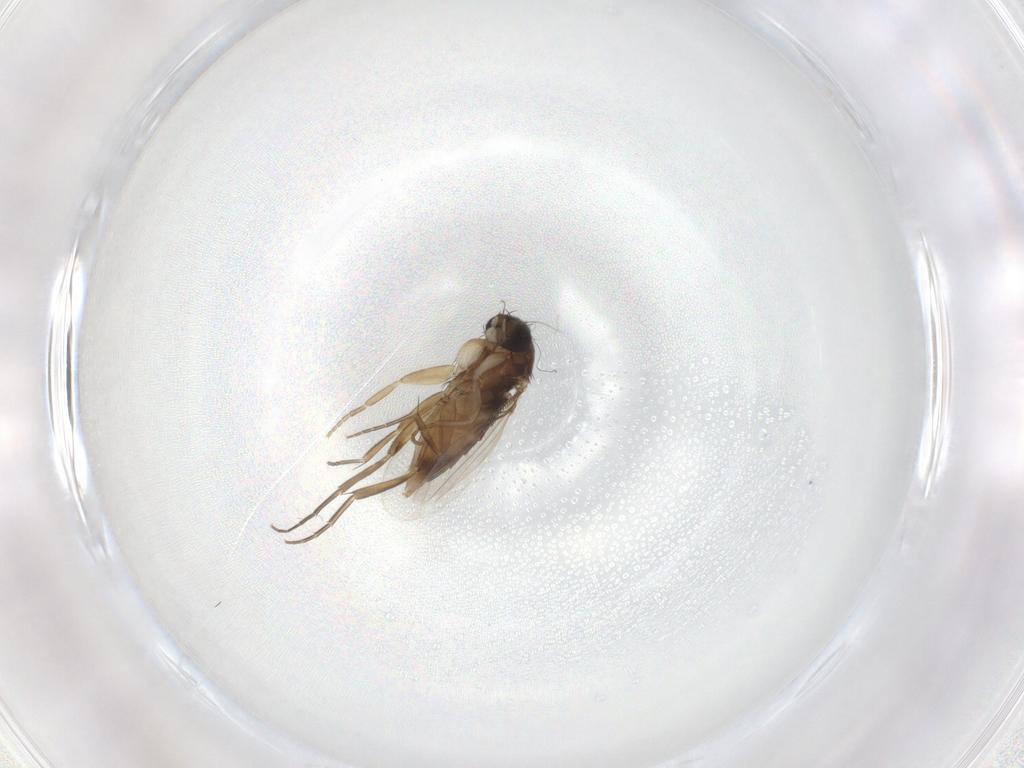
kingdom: Animalia
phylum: Arthropoda
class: Insecta
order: Diptera
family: Phoridae
